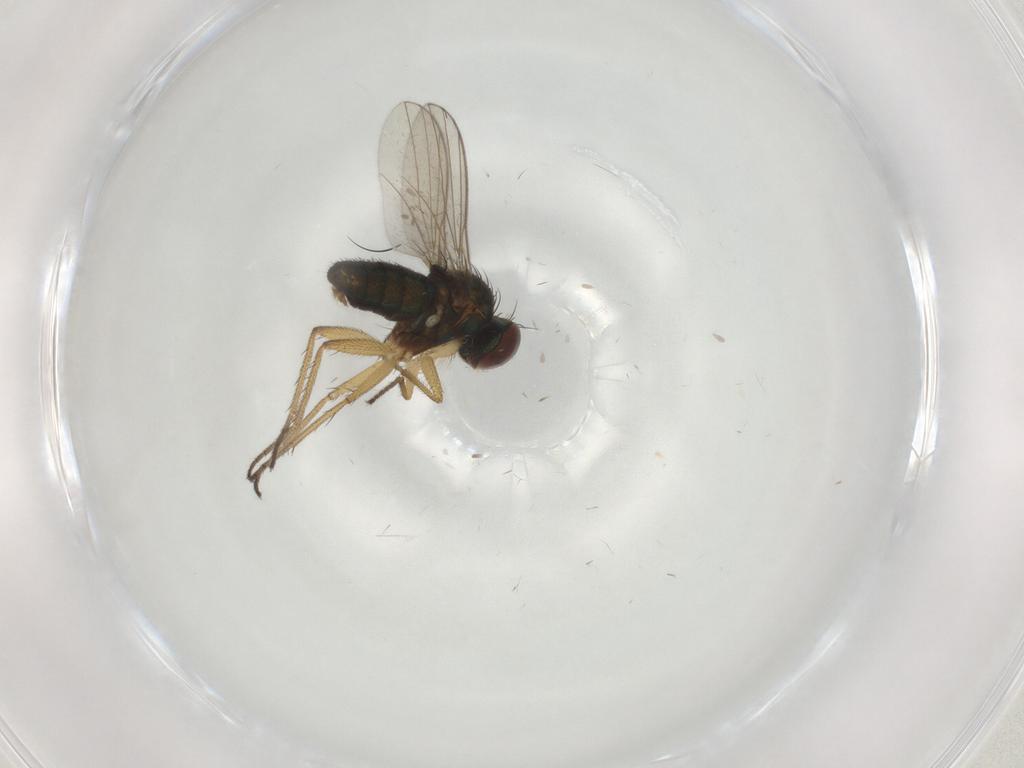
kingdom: Animalia
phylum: Arthropoda
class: Insecta
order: Diptera
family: Dolichopodidae
